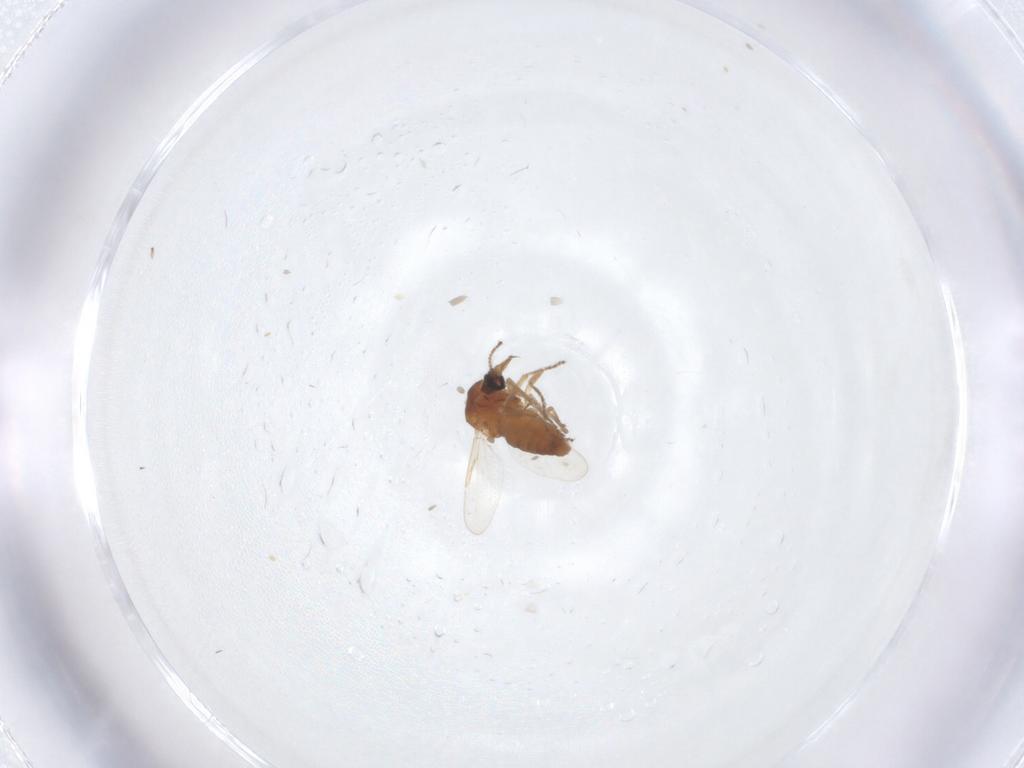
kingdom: Animalia
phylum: Arthropoda
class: Insecta
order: Diptera
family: Ceratopogonidae
